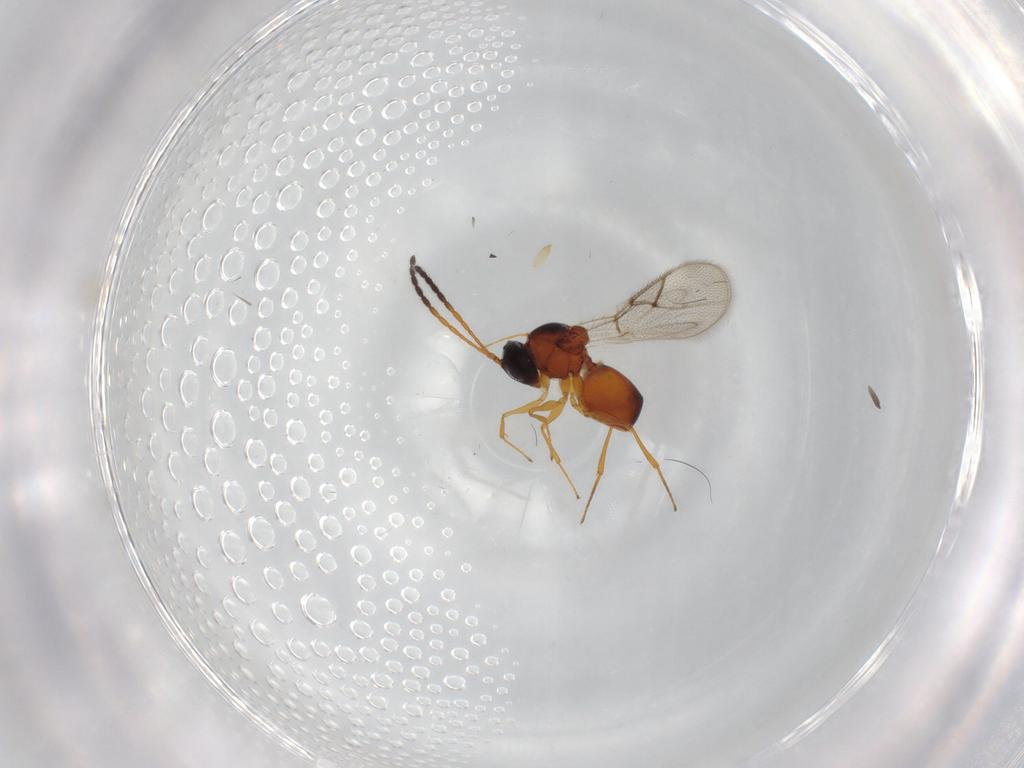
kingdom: Animalia
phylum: Arthropoda
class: Insecta
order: Hymenoptera
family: Figitidae
